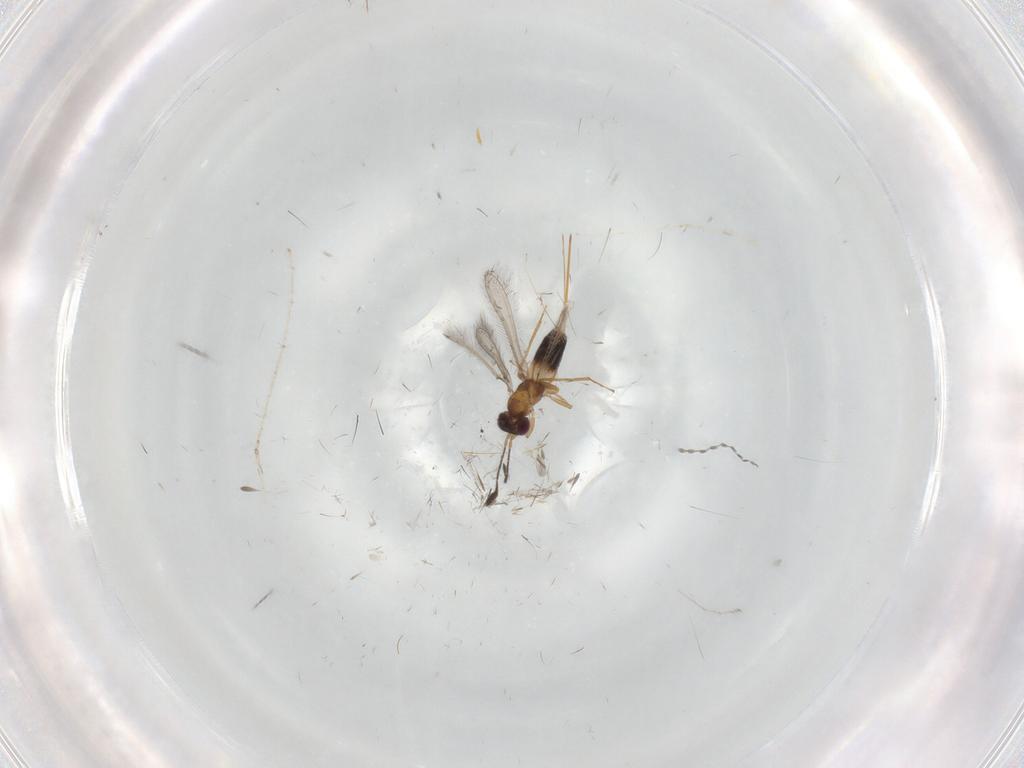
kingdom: Animalia
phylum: Arthropoda
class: Insecta
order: Hymenoptera
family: Mymaridae
